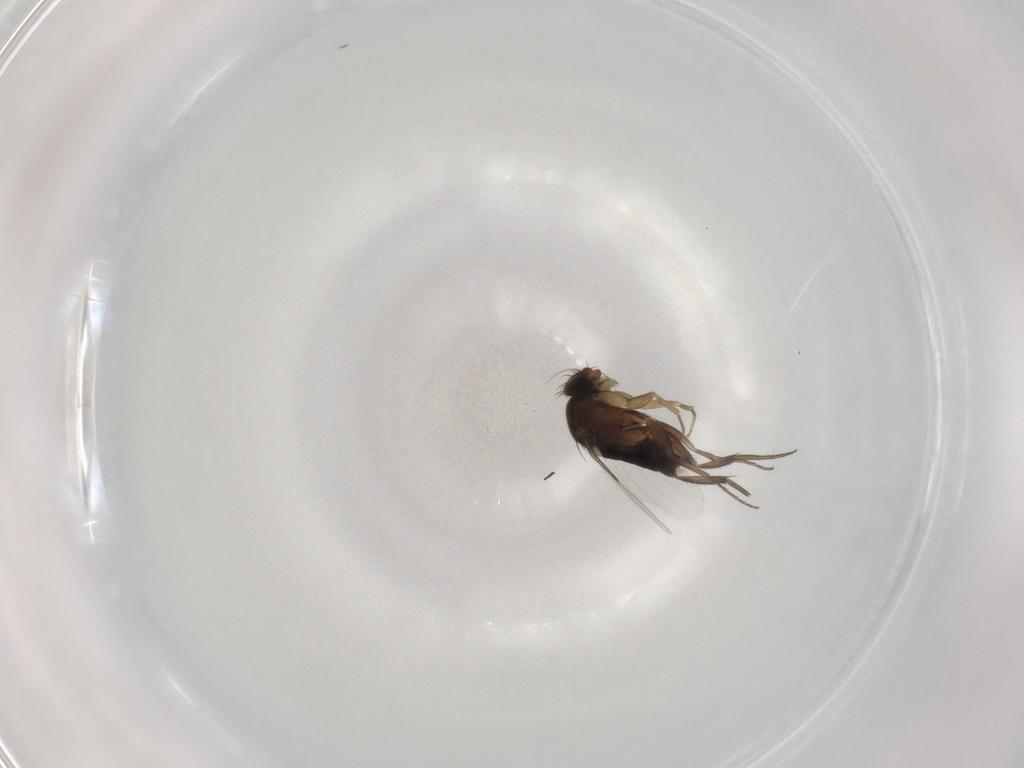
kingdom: Animalia
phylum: Arthropoda
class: Insecta
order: Diptera
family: Phoridae
